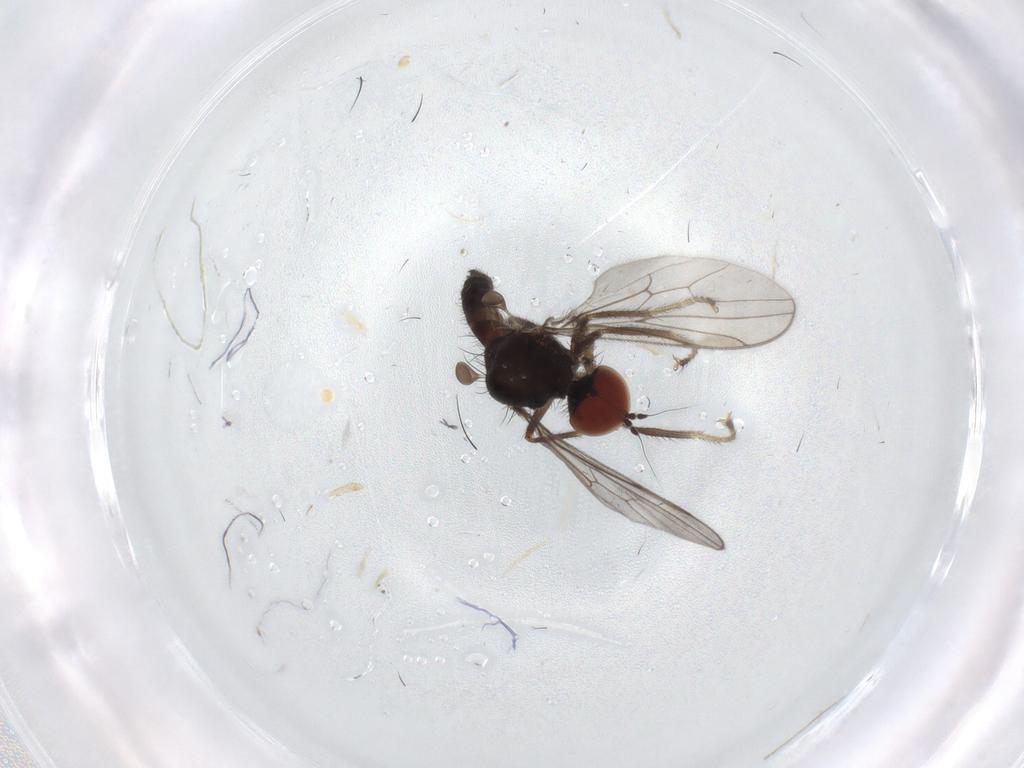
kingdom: Animalia
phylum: Arthropoda
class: Insecta
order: Diptera
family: Hybotidae
